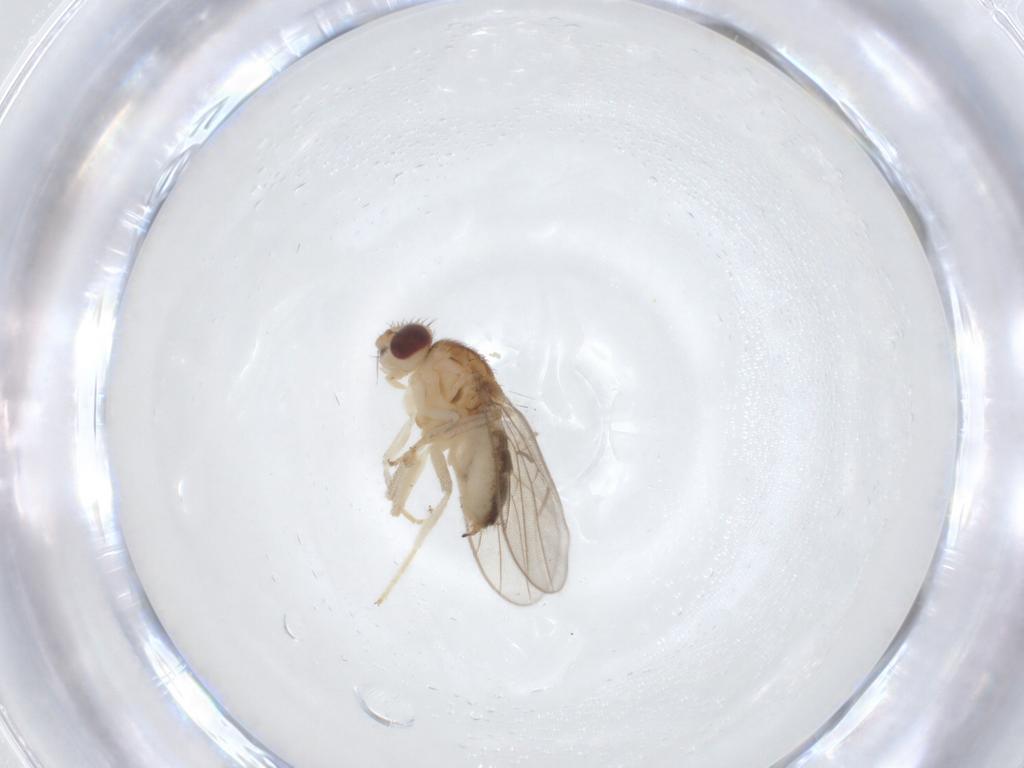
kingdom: Animalia
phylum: Arthropoda
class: Insecta
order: Diptera
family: Chloropidae
